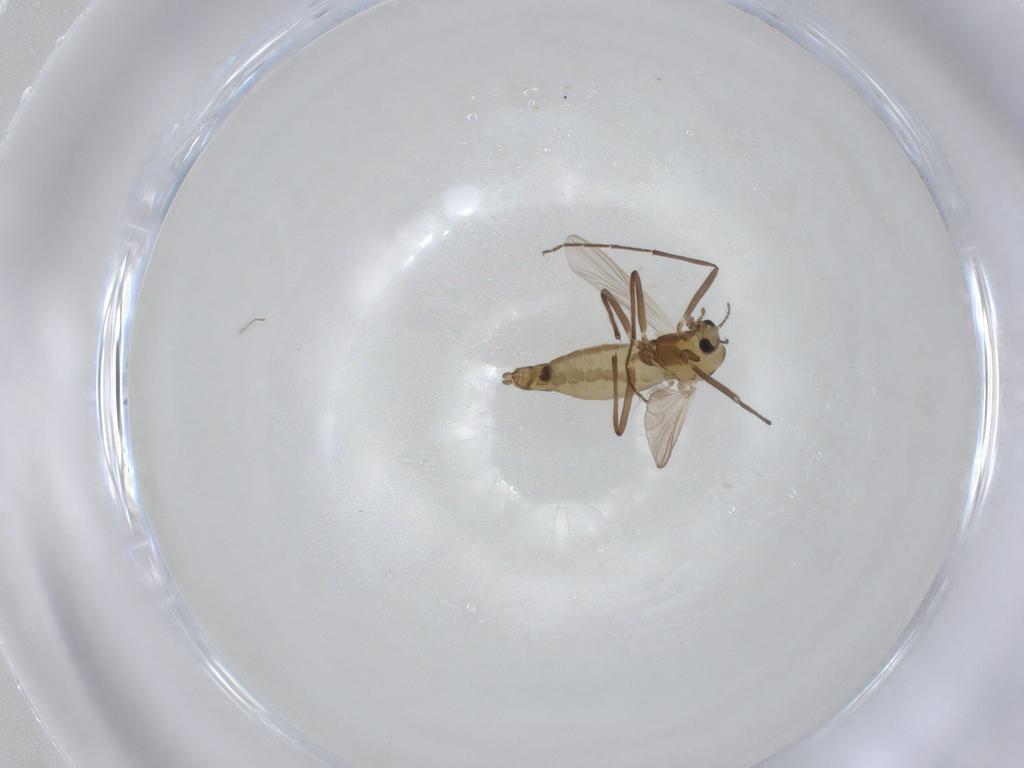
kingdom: Animalia
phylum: Arthropoda
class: Insecta
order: Diptera
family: Chironomidae
